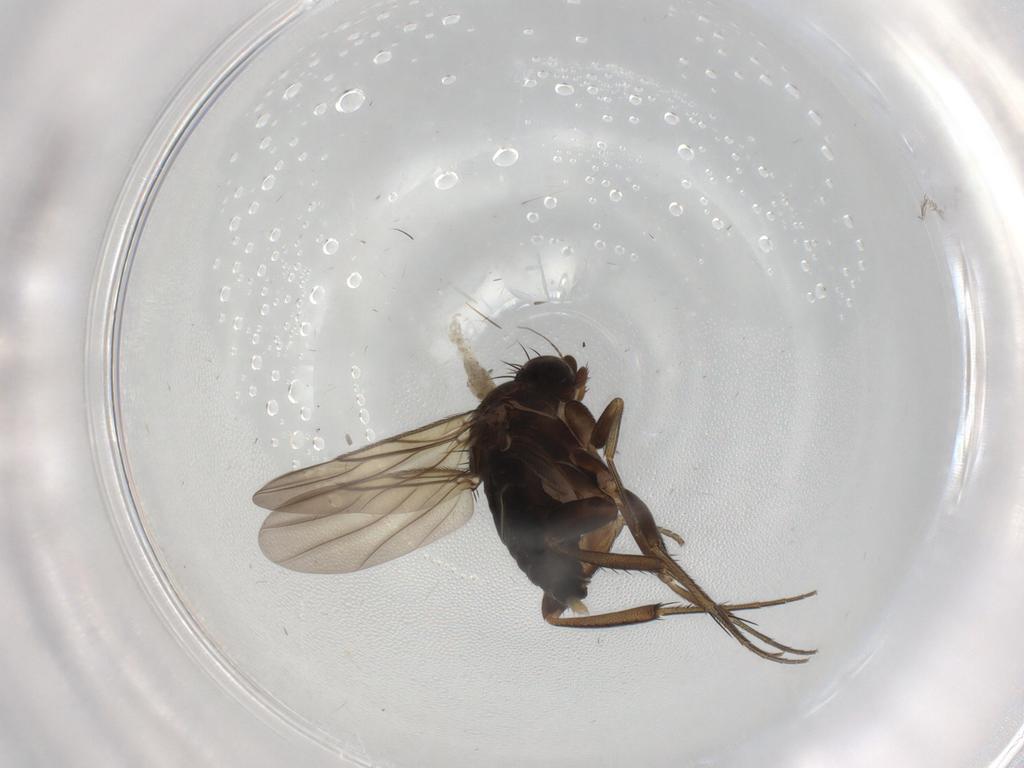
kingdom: Animalia
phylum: Arthropoda
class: Insecta
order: Diptera
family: Phoridae
